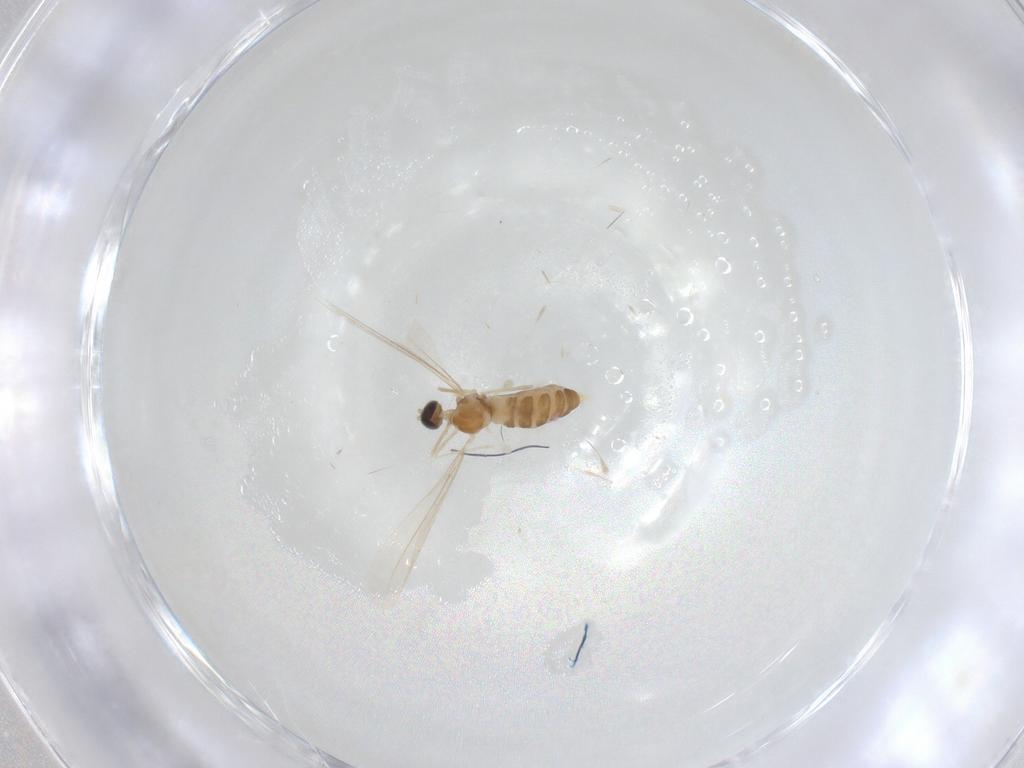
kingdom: Animalia
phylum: Arthropoda
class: Insecta
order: Diptera
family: Cecidomyiidae
